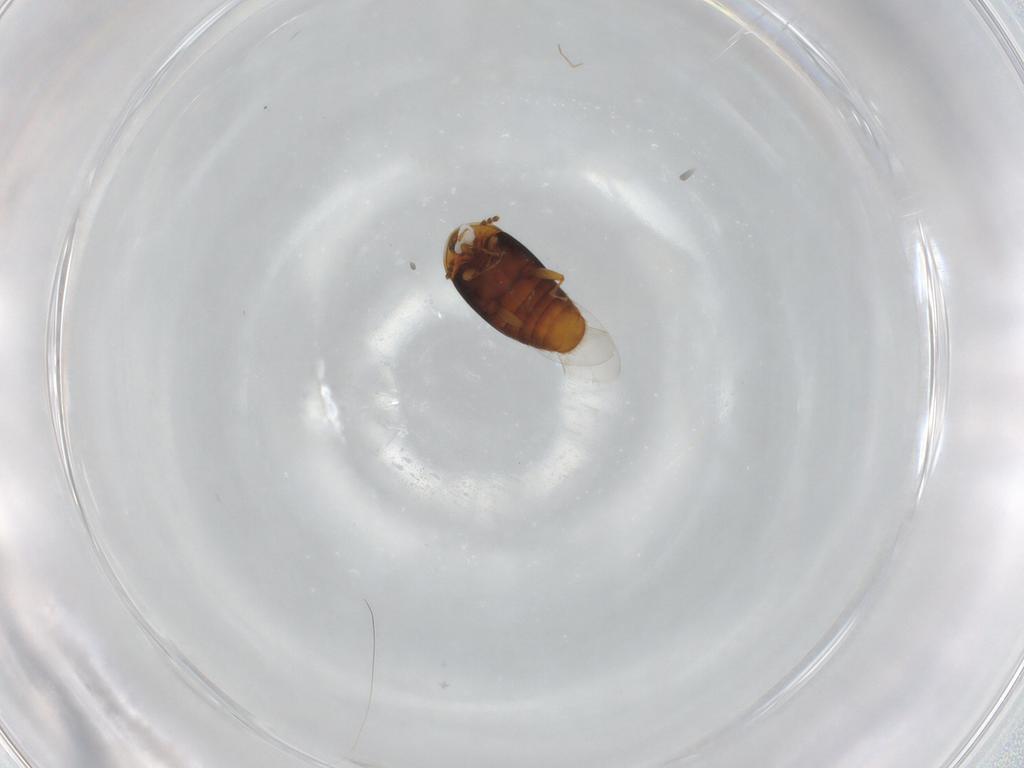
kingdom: Animalia
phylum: Arthropoda
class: Insecta
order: Coleoptera
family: Corylophidae
